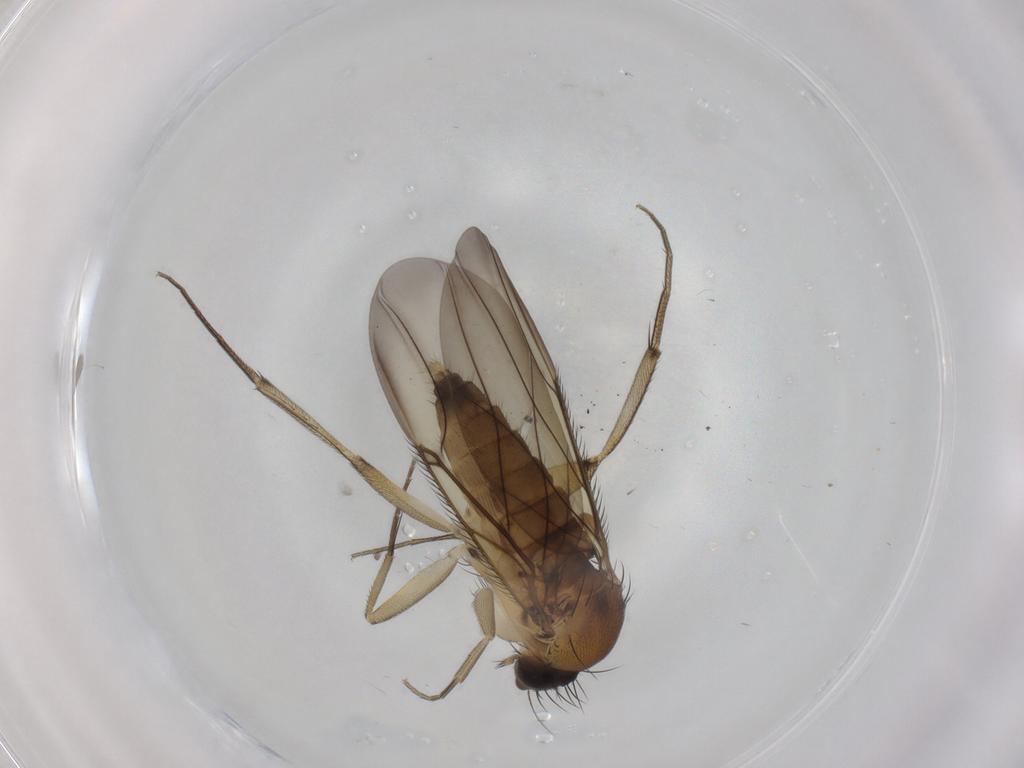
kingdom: Animalia
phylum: Arthropoda
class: Insecta
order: Diptera
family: Phoridae
